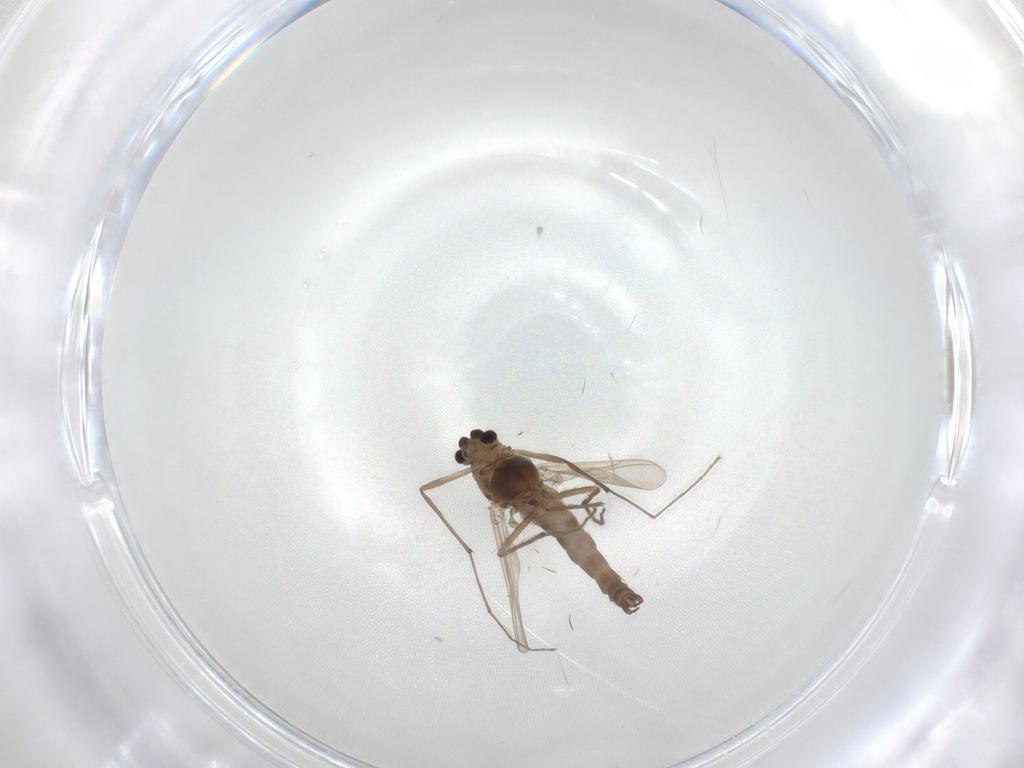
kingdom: Animalia
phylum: Arthropoda
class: Insecta
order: Diptera
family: Chironomidae
